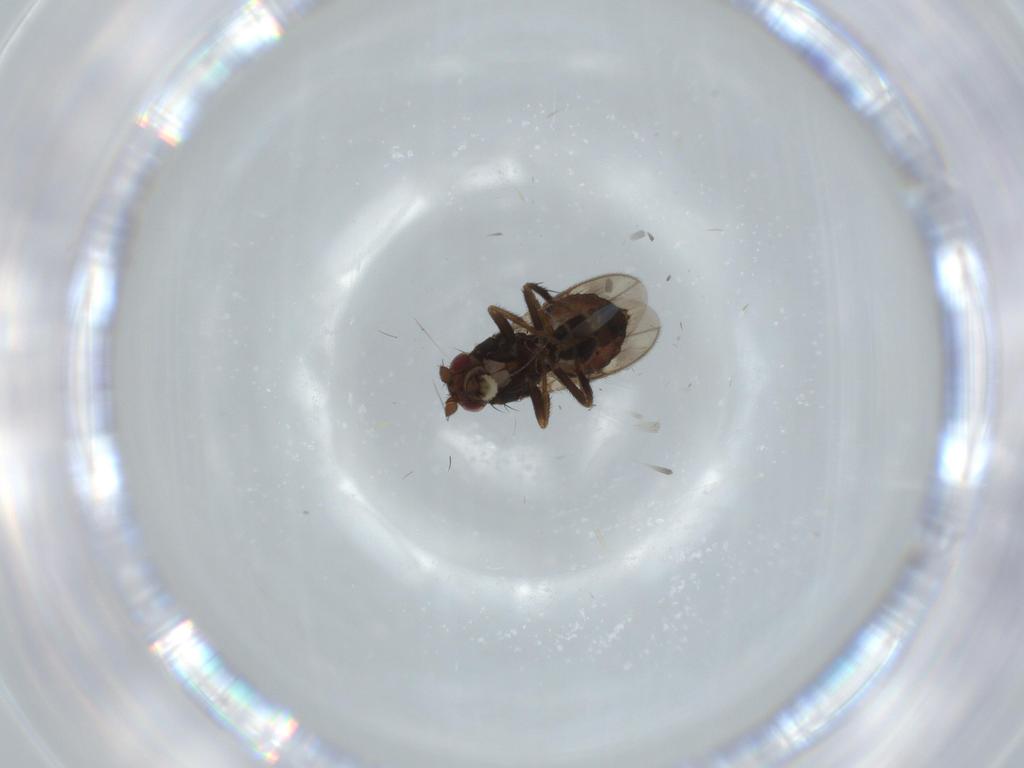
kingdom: Animalia
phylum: Arthropoda
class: Insecta
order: Diptera
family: Sphaeroceridae
